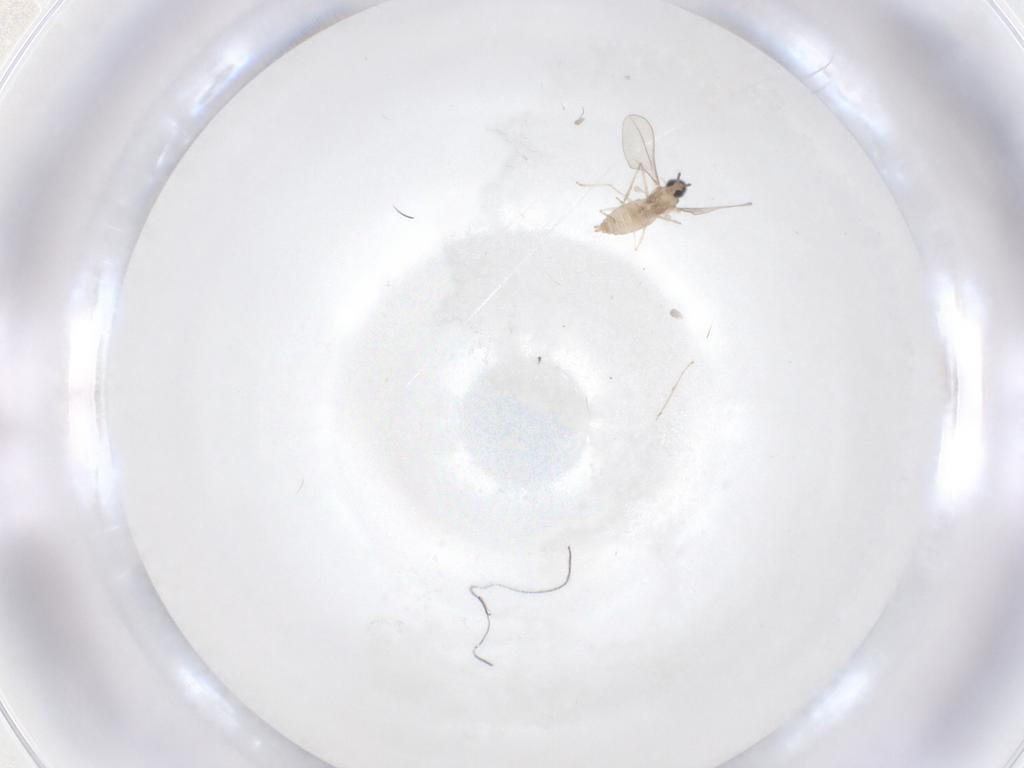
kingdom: Animalia
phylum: Arthropoda
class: Insecta
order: Diptera
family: Cecidomyiidae
